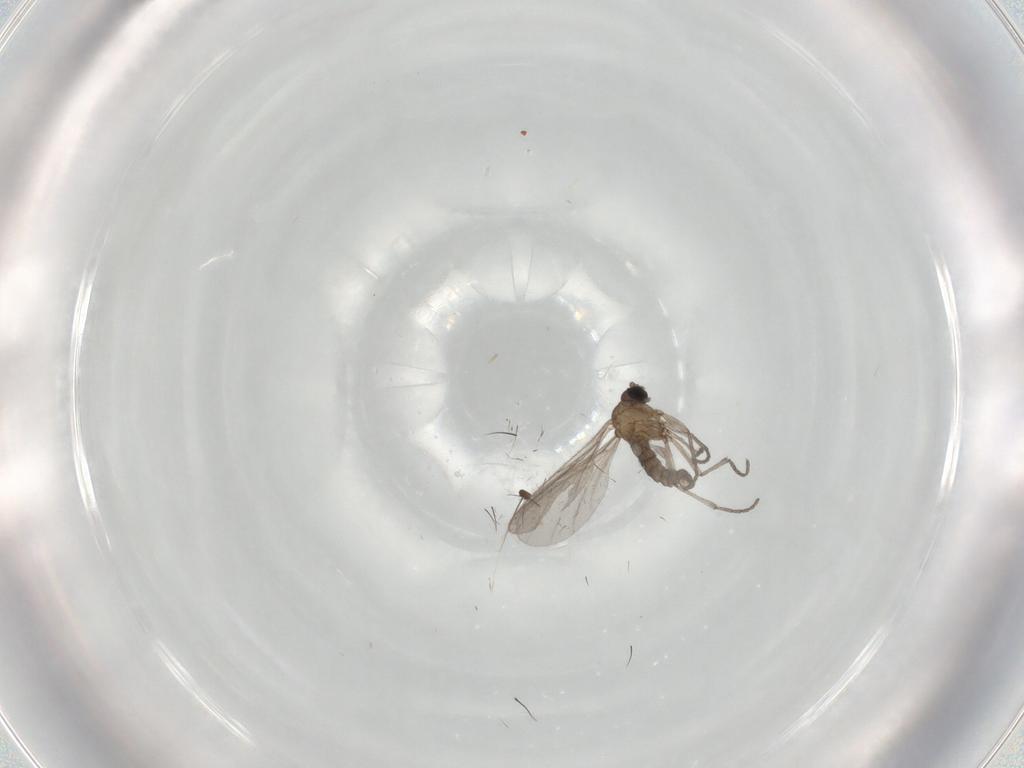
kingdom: Animalia
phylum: Arthropoda
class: Insecta
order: Diptera
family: Sciaridae
